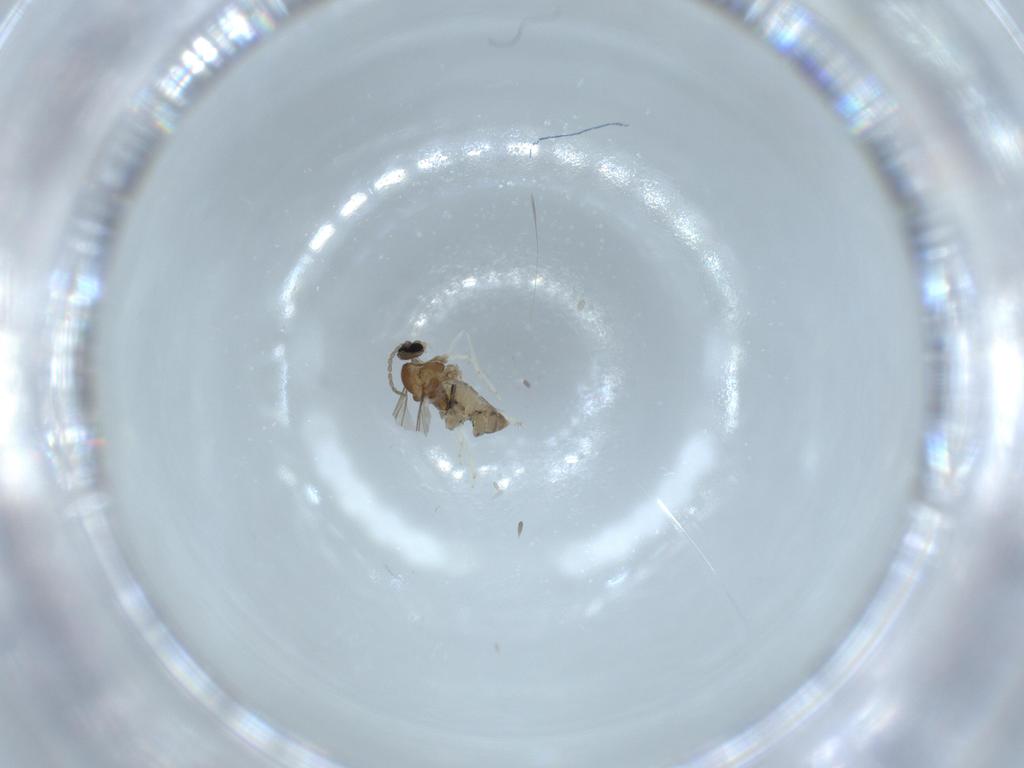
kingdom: Animalia
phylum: Arthropoda
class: Insecta
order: Diptera
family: Cecidomyiidae
